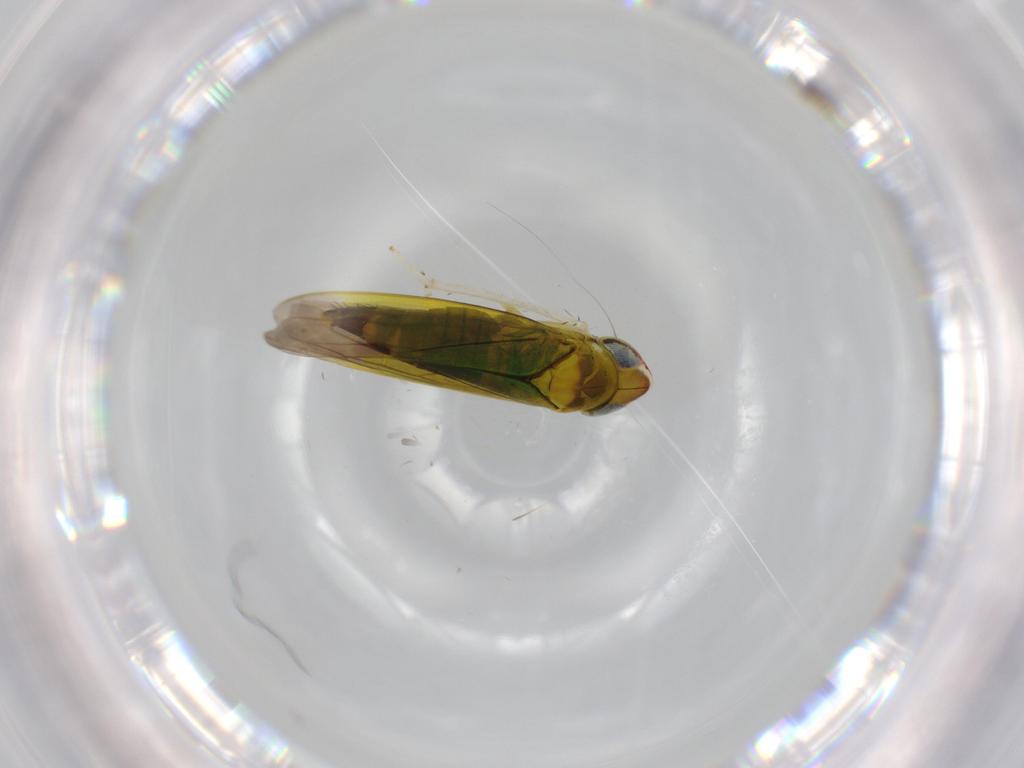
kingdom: Animalia
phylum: Arthropoda
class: Insecta
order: Hemiptera
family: Cicadellidae
